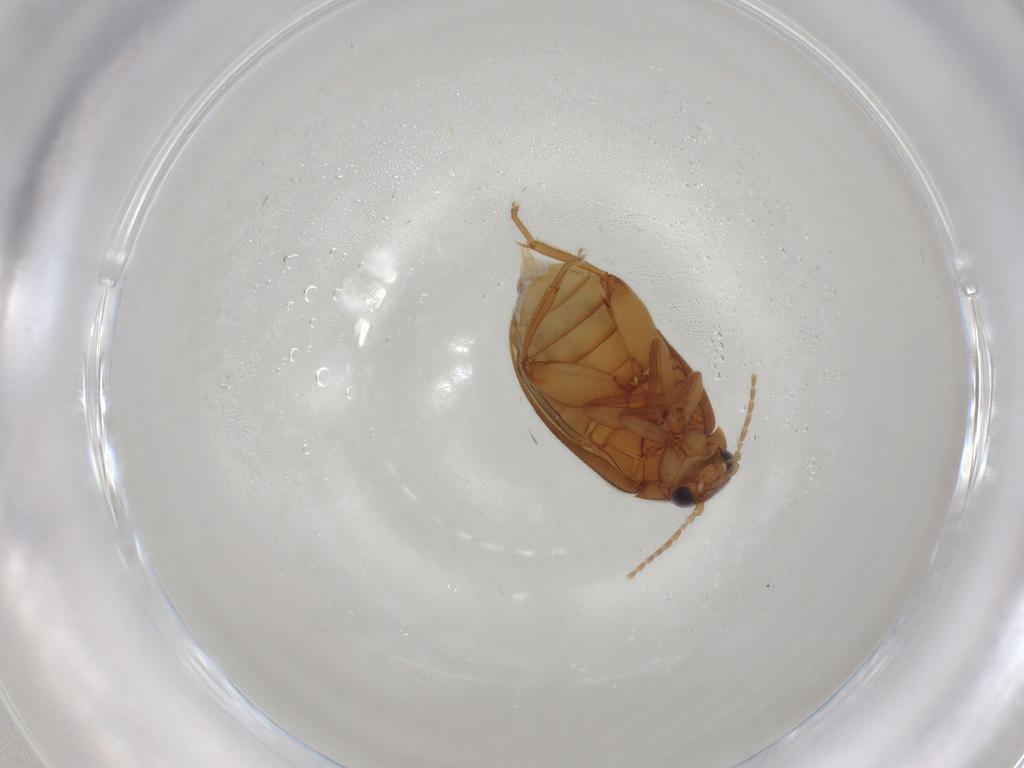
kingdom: Animalia
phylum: Arthropoda
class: Insecta
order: Coleoptera
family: Scirtidae
